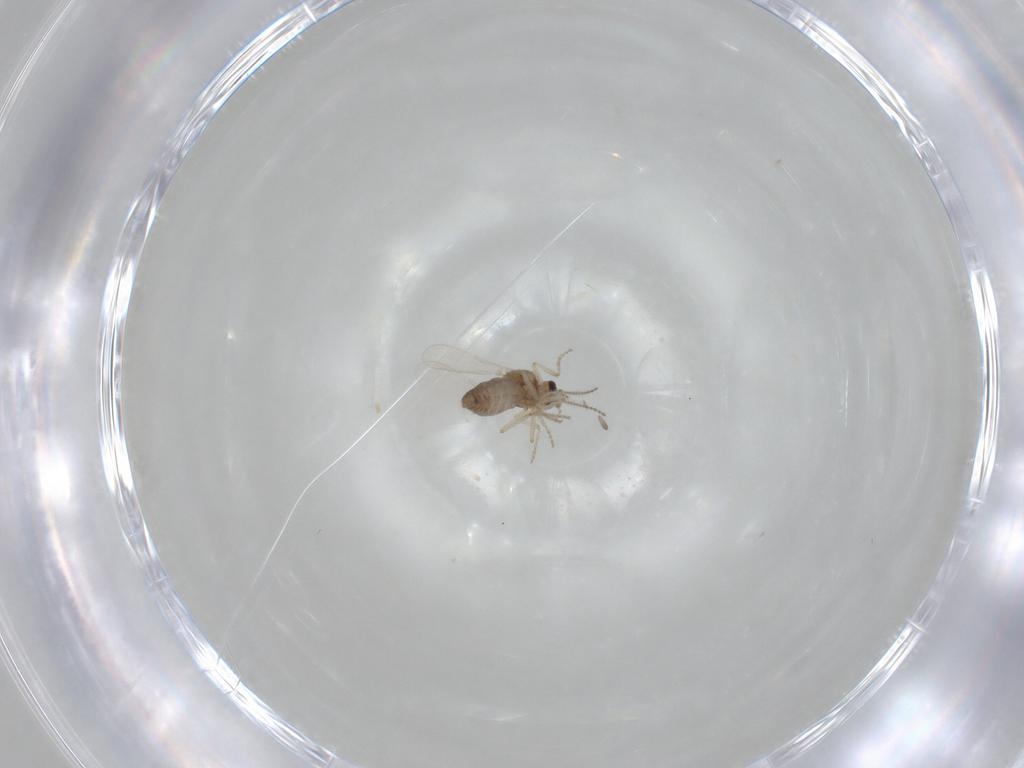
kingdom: Animalia
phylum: Arthropoda
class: Insecta
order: Diptera
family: Ceratopogonidae
